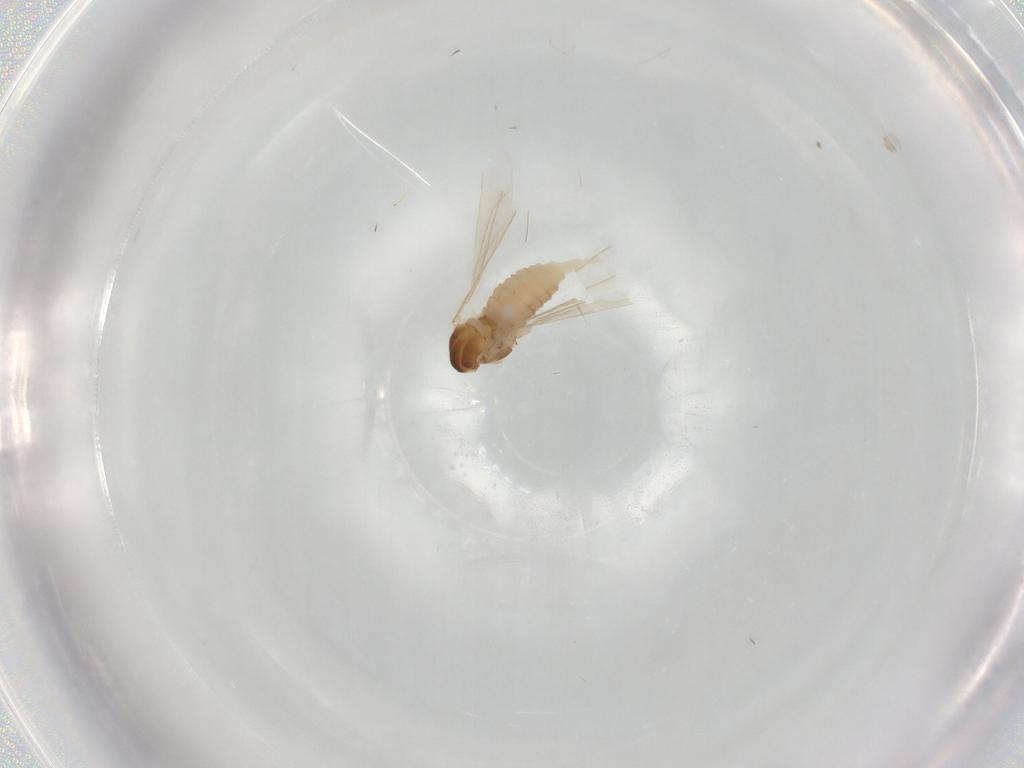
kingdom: Animalia
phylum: Arthropoda
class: Insecta
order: Diptera
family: Cecidomyiidae
